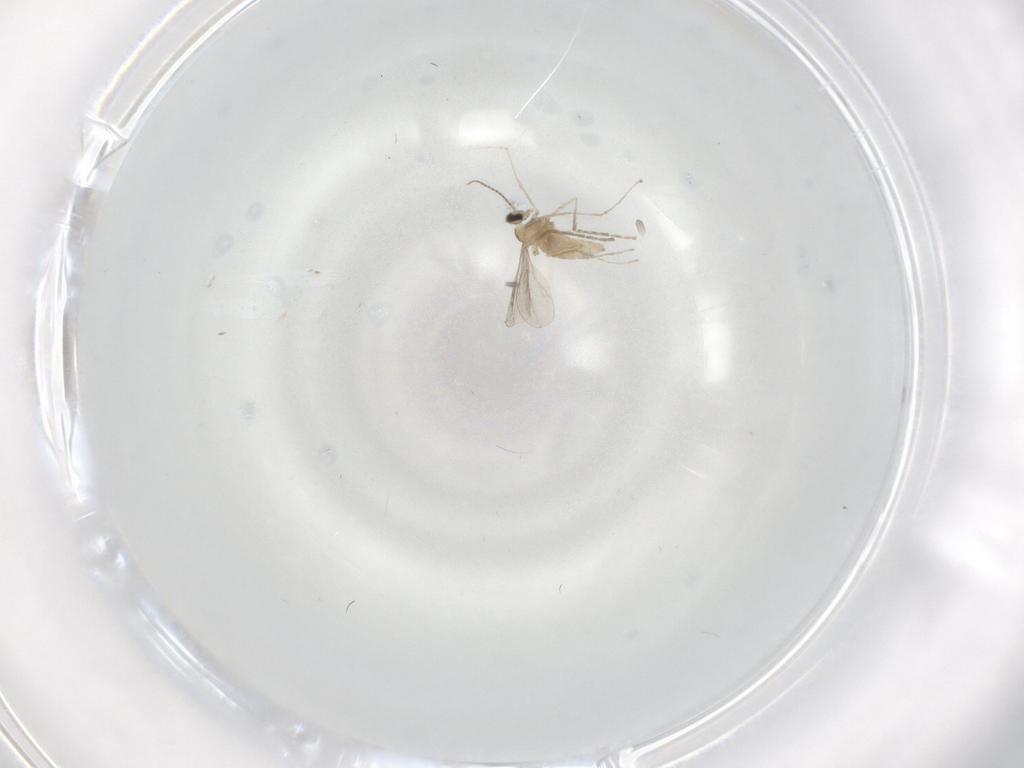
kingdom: Animalia
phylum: Arthropoda
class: Insecta
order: Diptera
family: Cecidomyiidae
